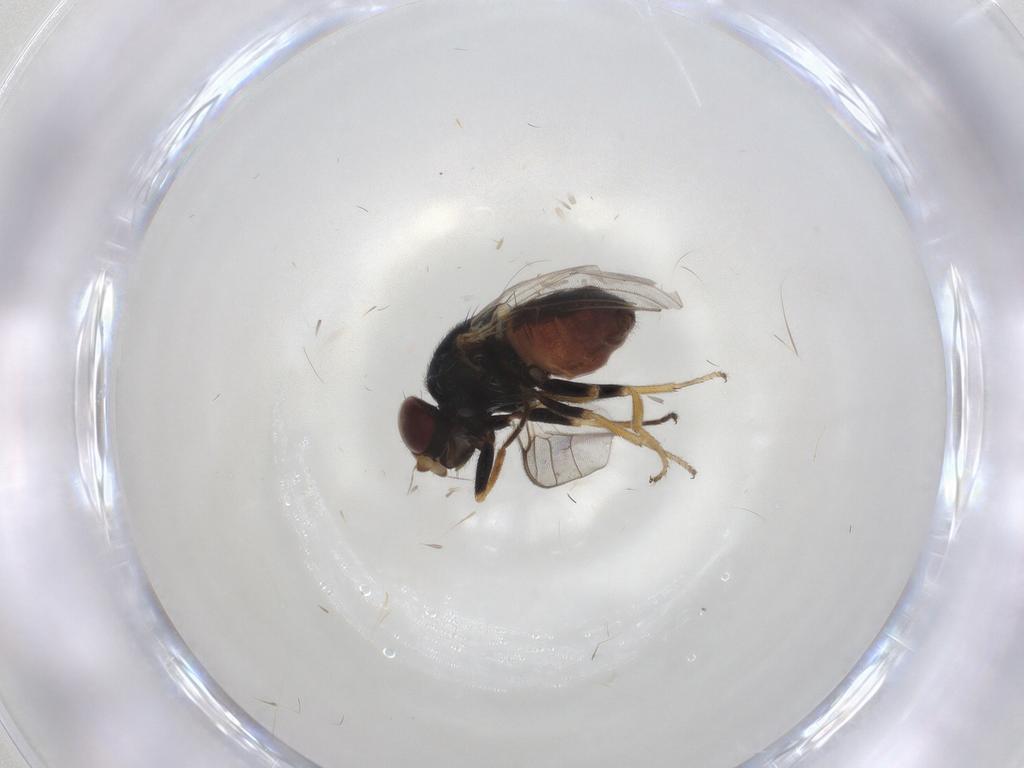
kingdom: Animalia
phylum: Arthropoda
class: Insecta
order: Diptera
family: Chloropidae
